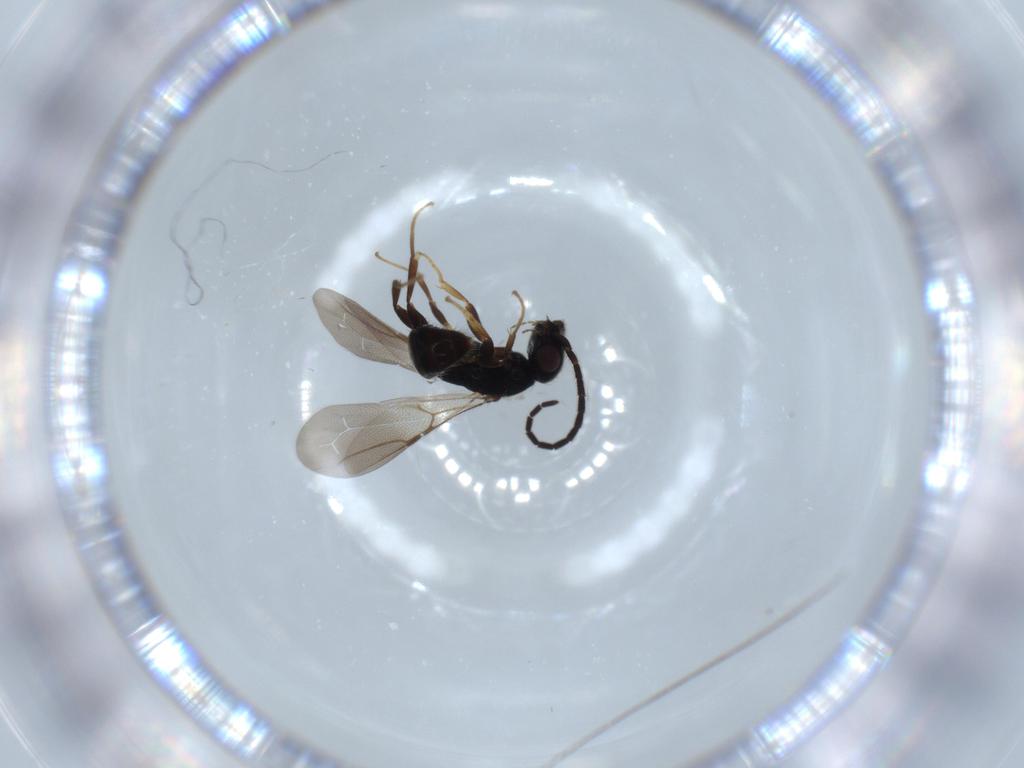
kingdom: Animalia
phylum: Arthropoda
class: Insecta
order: Hymenoptera
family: Bethylidae
